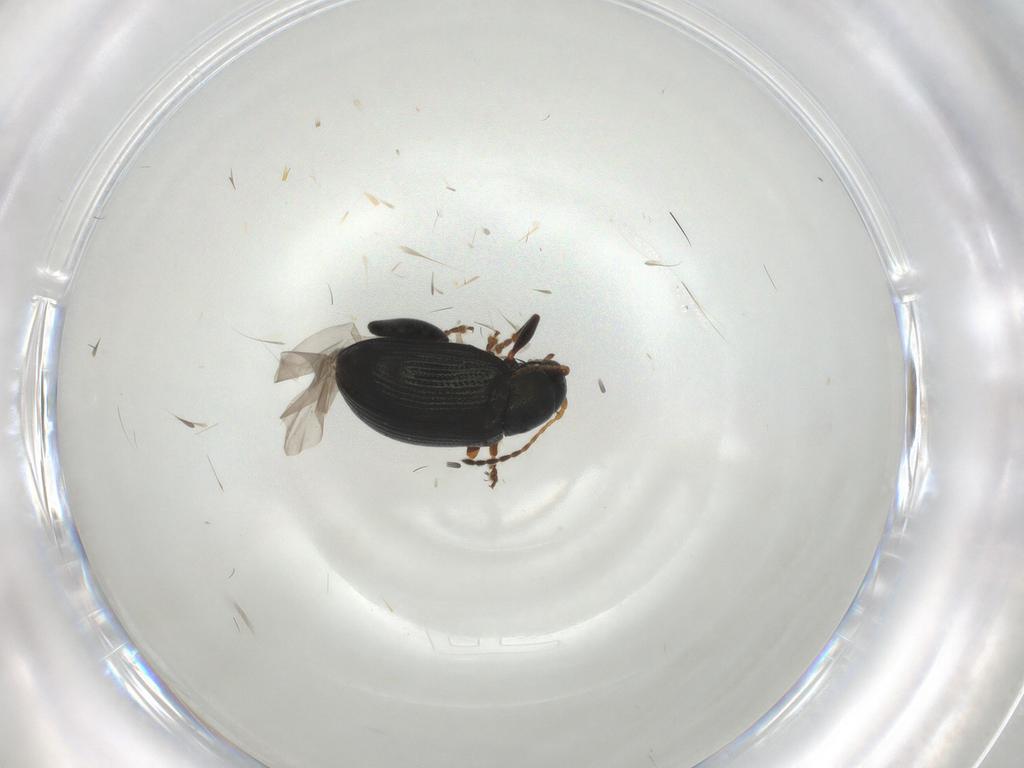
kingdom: Animalia
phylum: Arthropoda
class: Insecta
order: Coleoptera
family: Chrysomelidae
